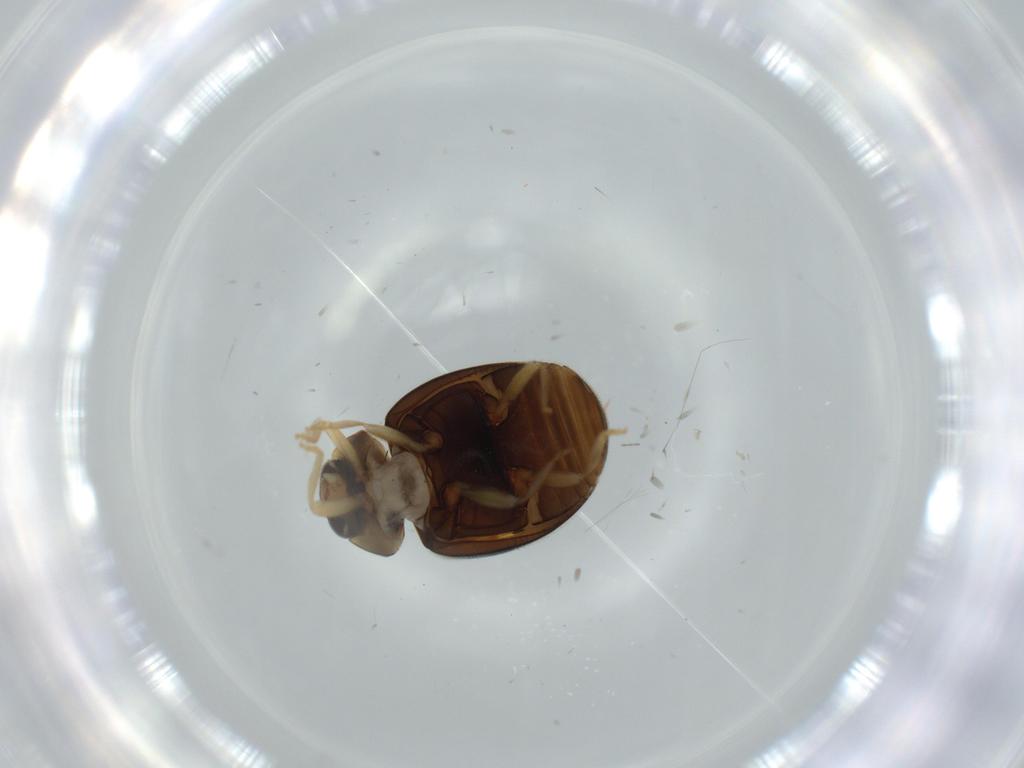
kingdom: Animalia
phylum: Arthropoda
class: Insecta
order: Coleoptera
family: Coccinellidae
